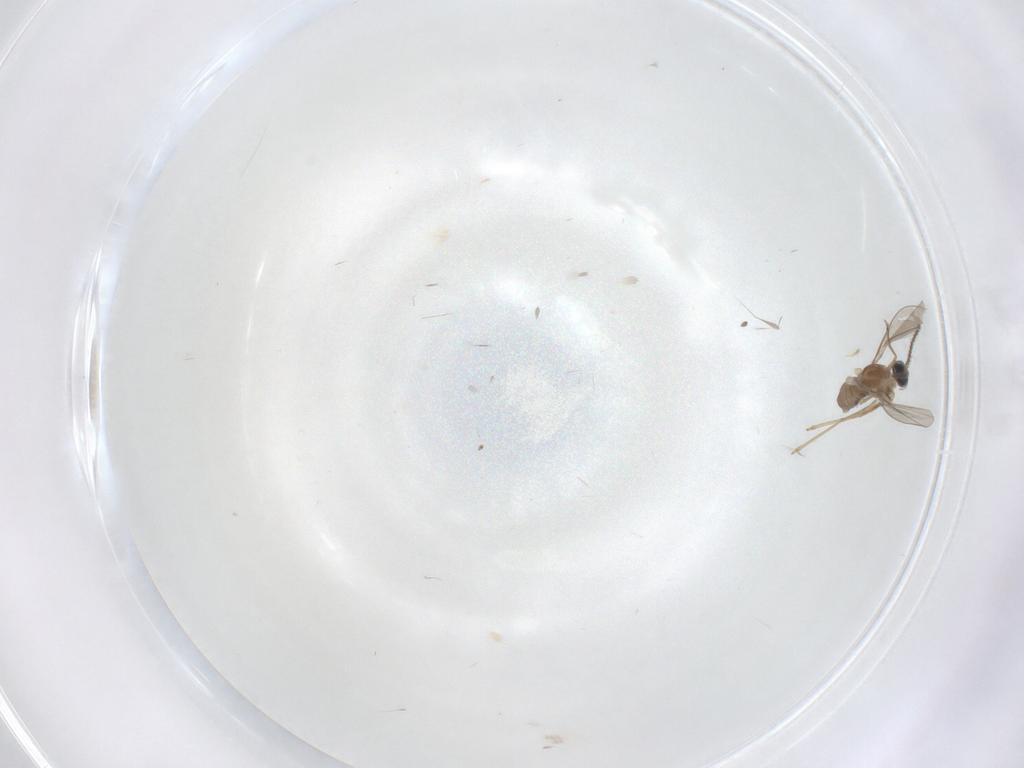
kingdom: Animalia
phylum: Arthropoda
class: Insecta
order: Diptera
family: Cecidomyiidae
